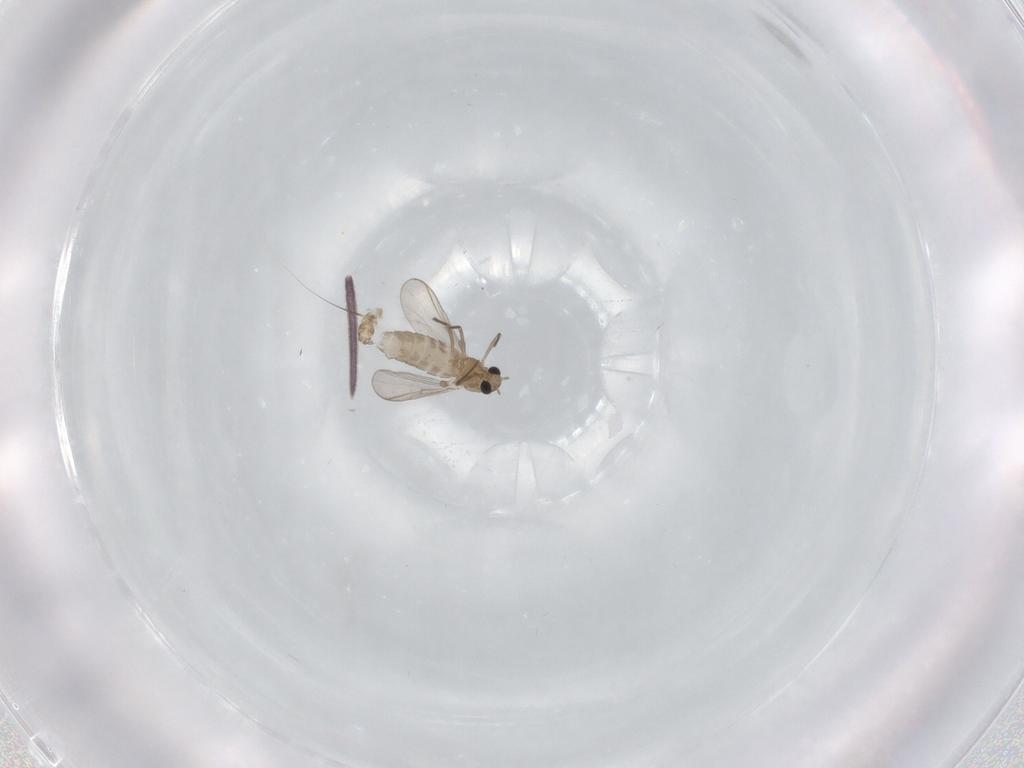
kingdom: Animalia
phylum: Arthropoda
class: Insecta
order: Diptera
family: Chironomidae
